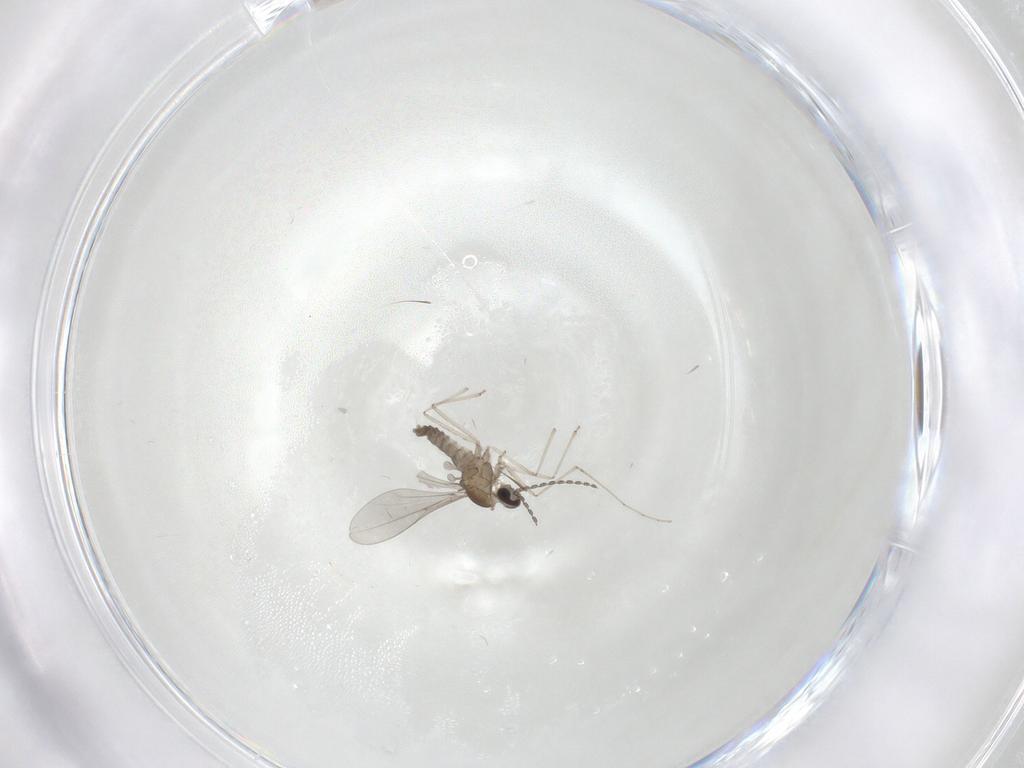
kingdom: Animalia
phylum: Arthropoda
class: Insecta
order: Diptera
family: Cecidomyiidae
